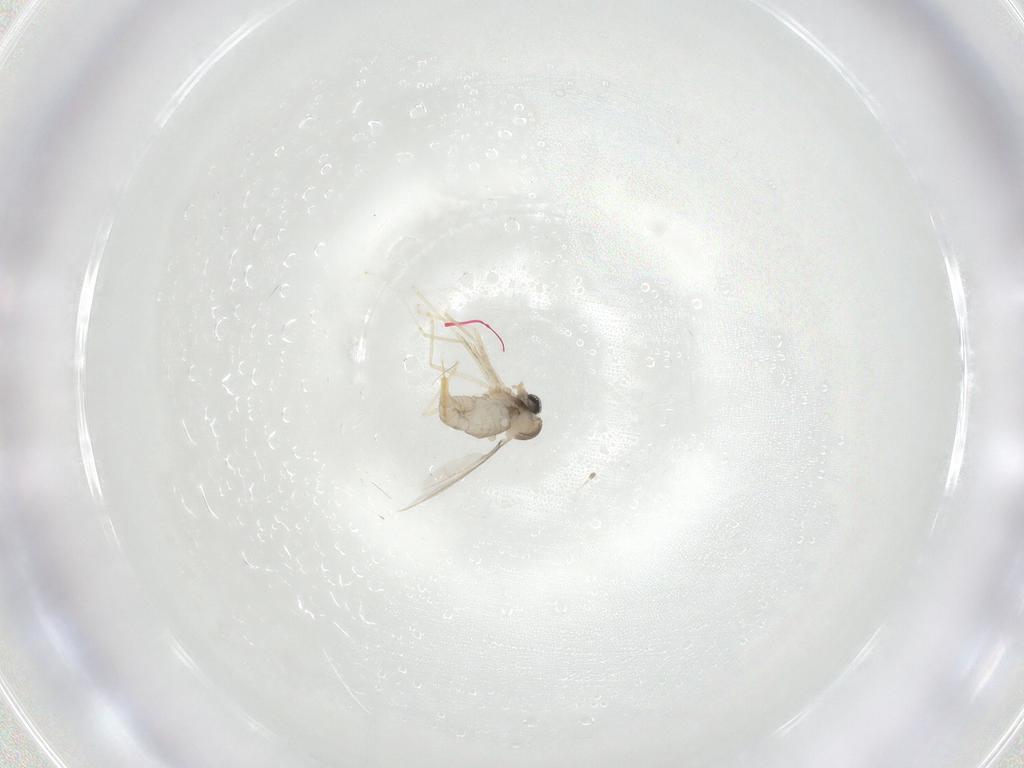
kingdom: Animalia
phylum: Arthropoda
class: Insecta
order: Diptera
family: Cecidomyiidae
